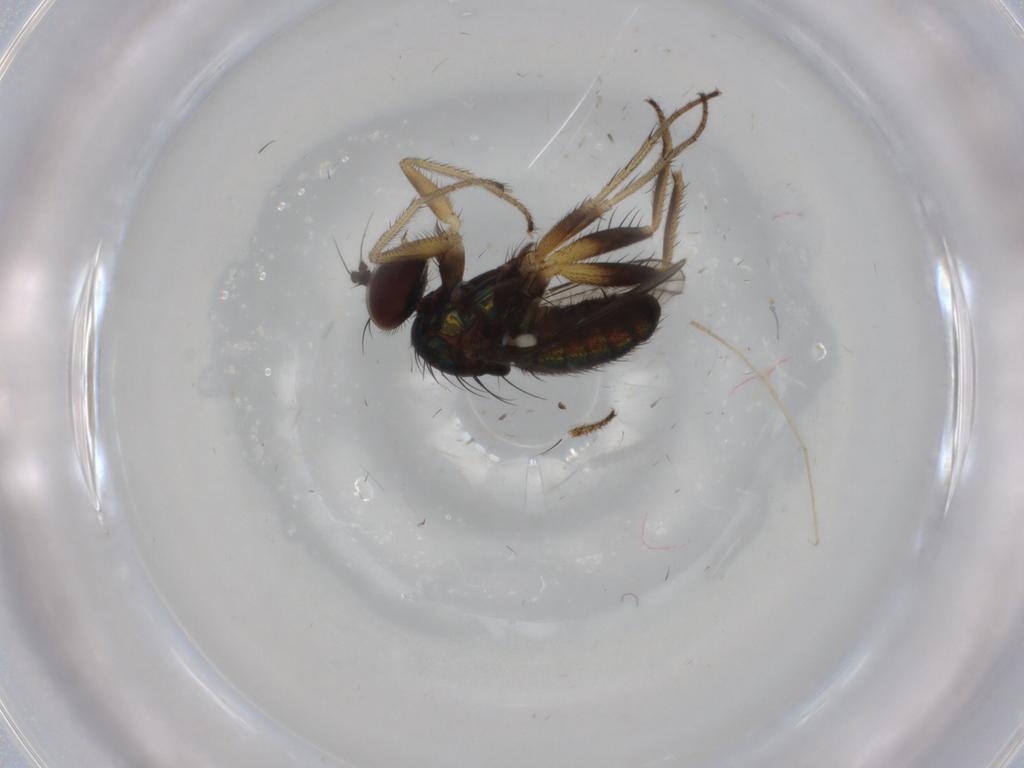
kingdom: Animalia
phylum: Arthropoda
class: Insecta
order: Diptera
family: Dolichopodidae
